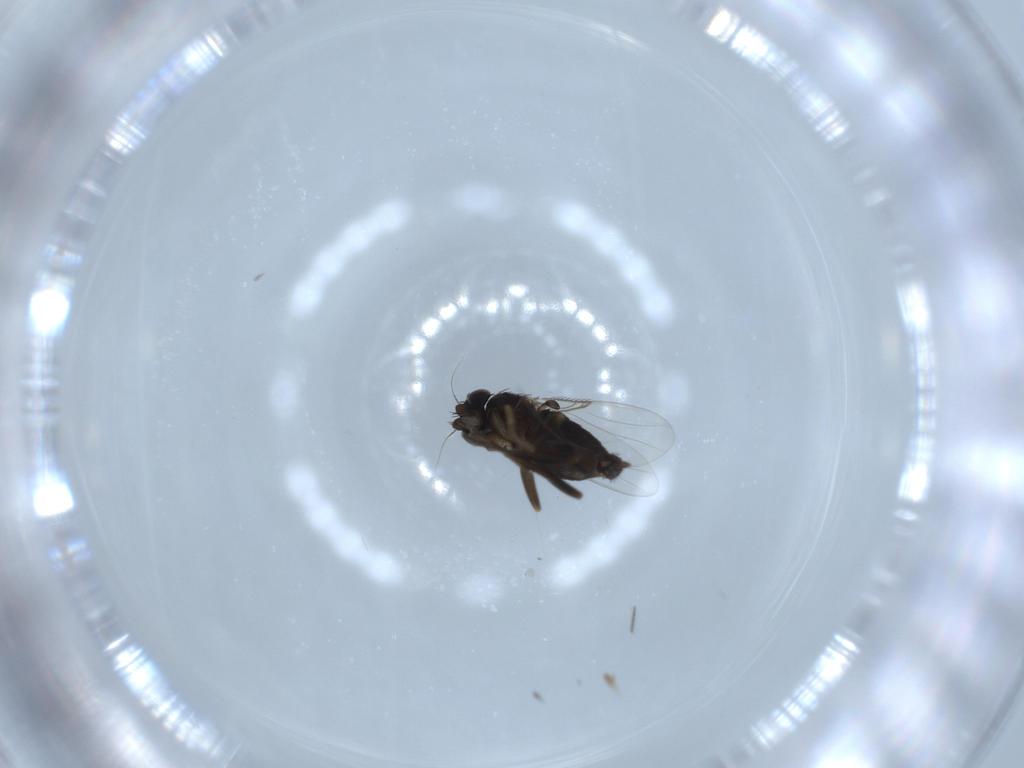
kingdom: Animalia
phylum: Arthropoda
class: Insecta
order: Diptera
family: Phoridae
